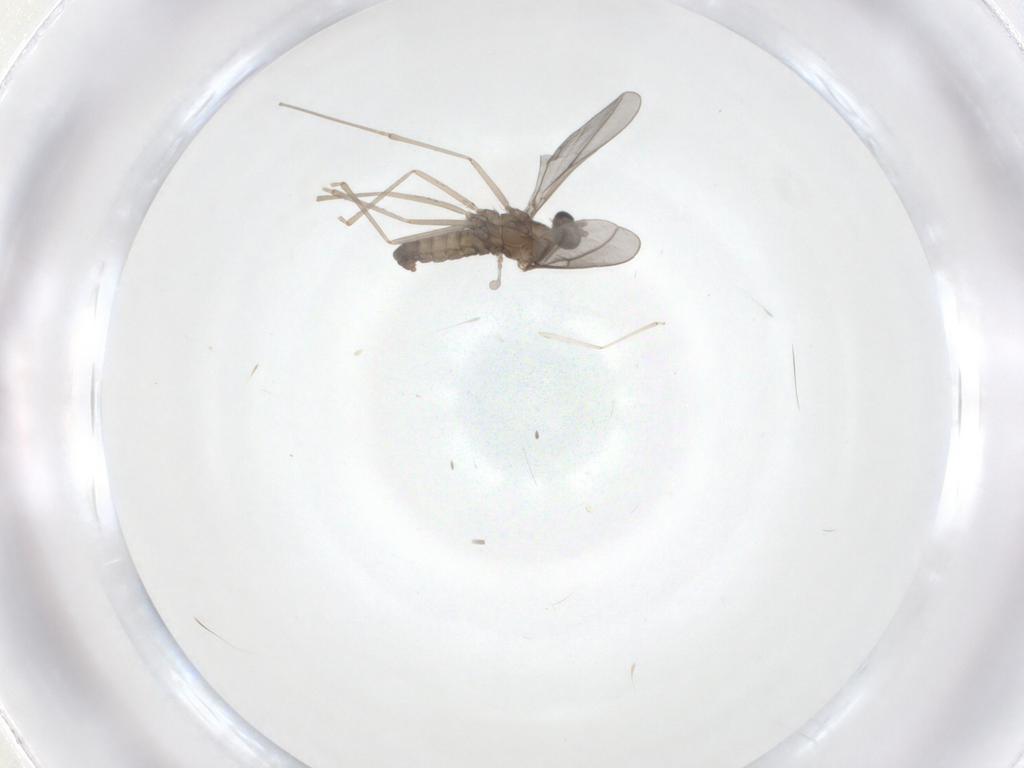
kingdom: Animalia
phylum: Arthropoda
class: Insecta
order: Diptera
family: Cecidomyiidae
